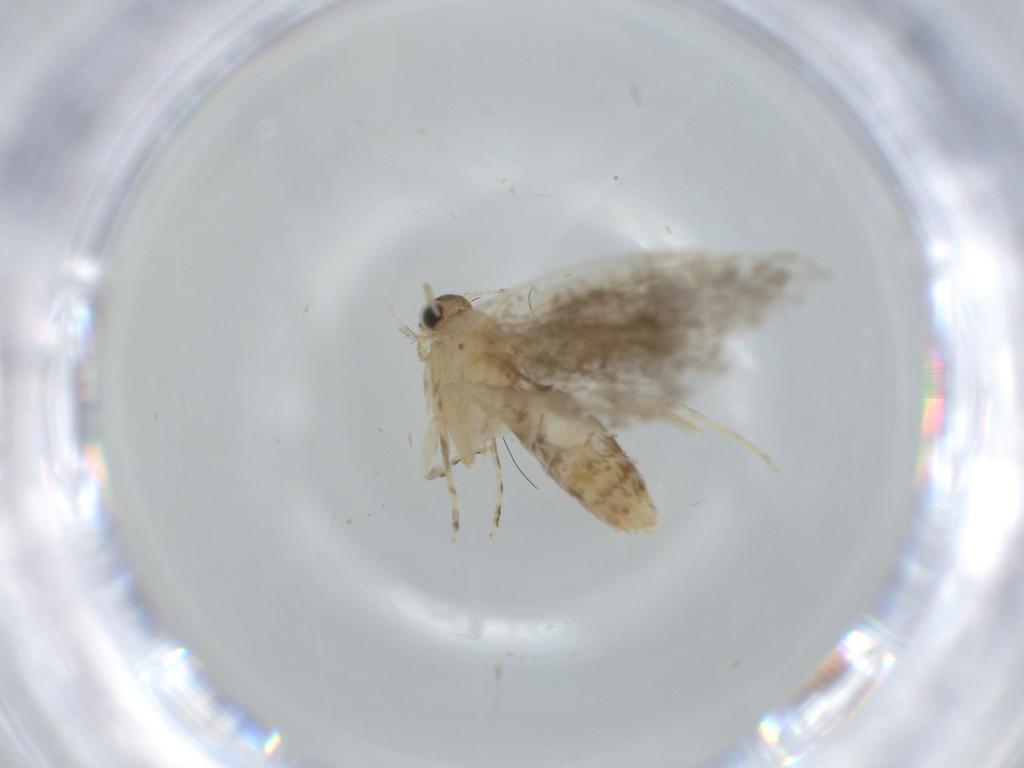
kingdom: Animalia
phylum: Arthropoda
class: Insecta
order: Lepidoptera
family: Tineidae
